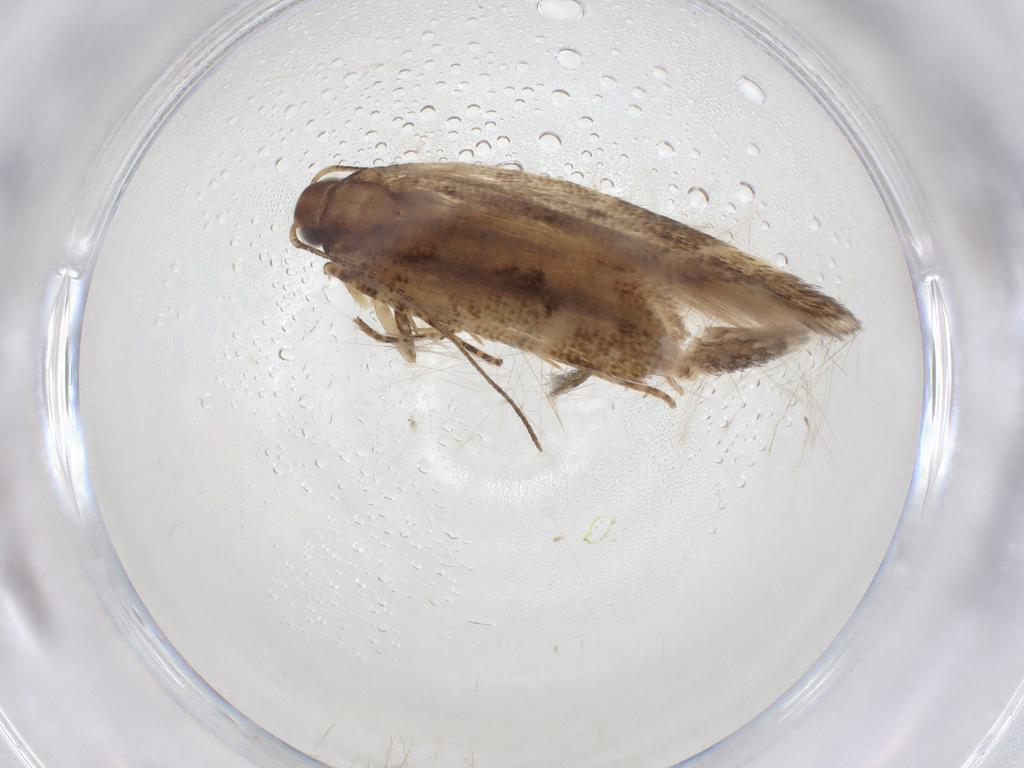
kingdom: Animalia
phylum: Arthropoda
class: Insecta
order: Lepidoptera
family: Gelechiidae
